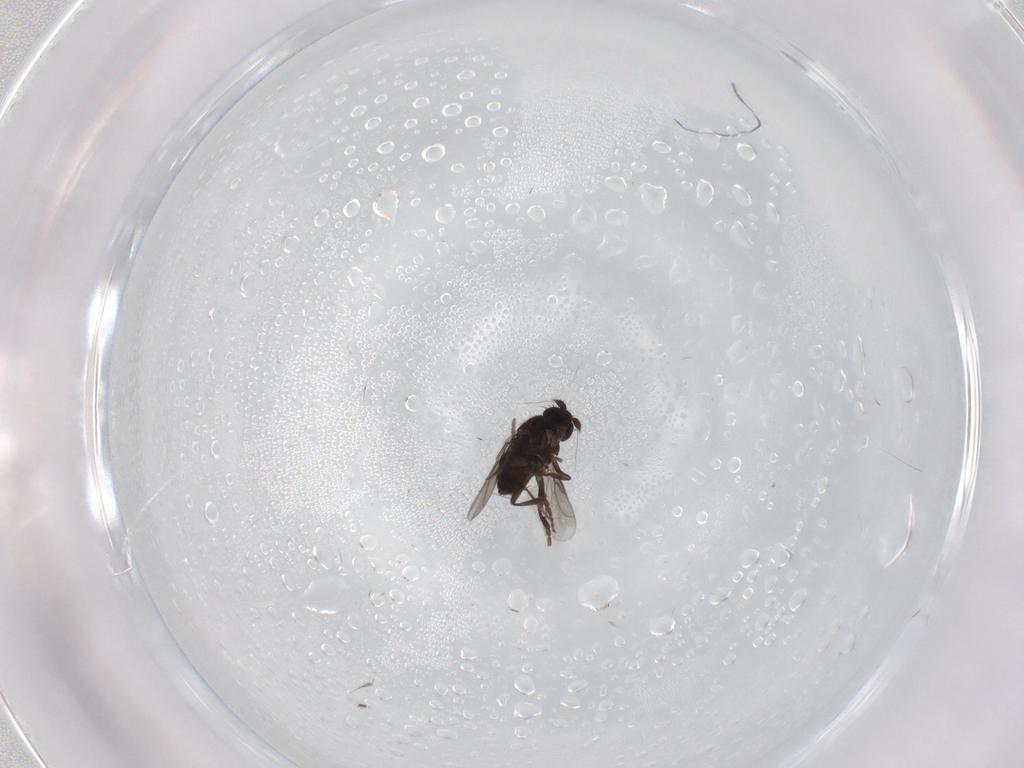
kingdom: Animalia
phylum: Arthropoda
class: Insecta
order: Diptera
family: Chironomidae
